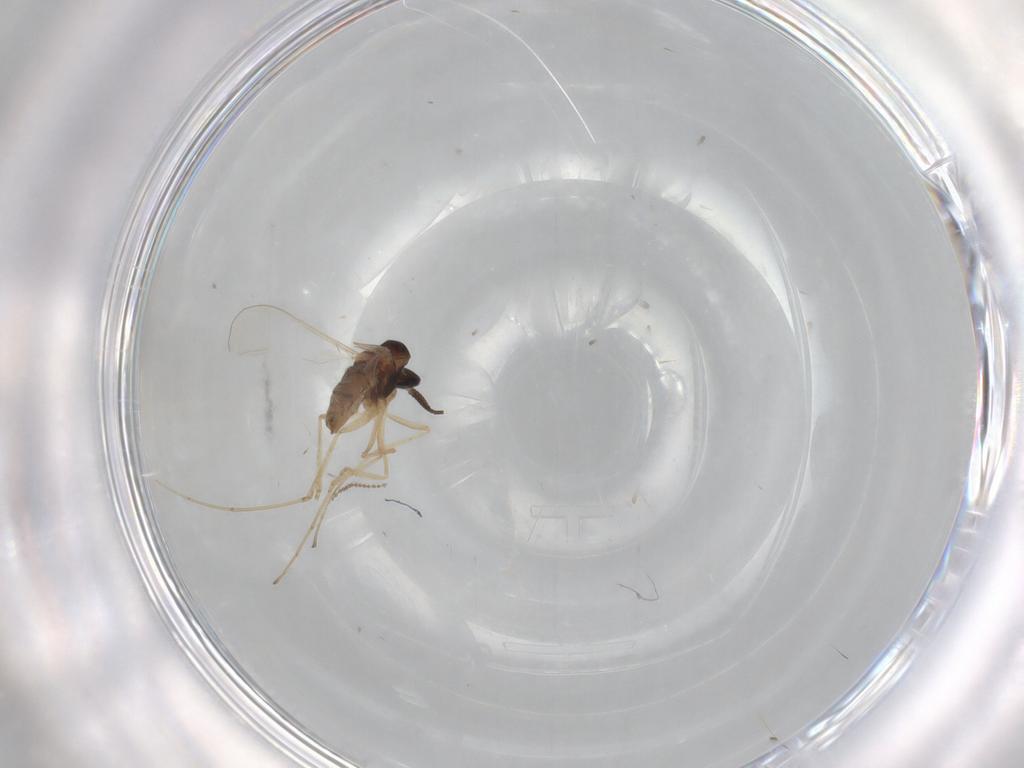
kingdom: Animalia
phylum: Arthropoda
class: Insecta
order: Diptera
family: Cecidomyiidae
